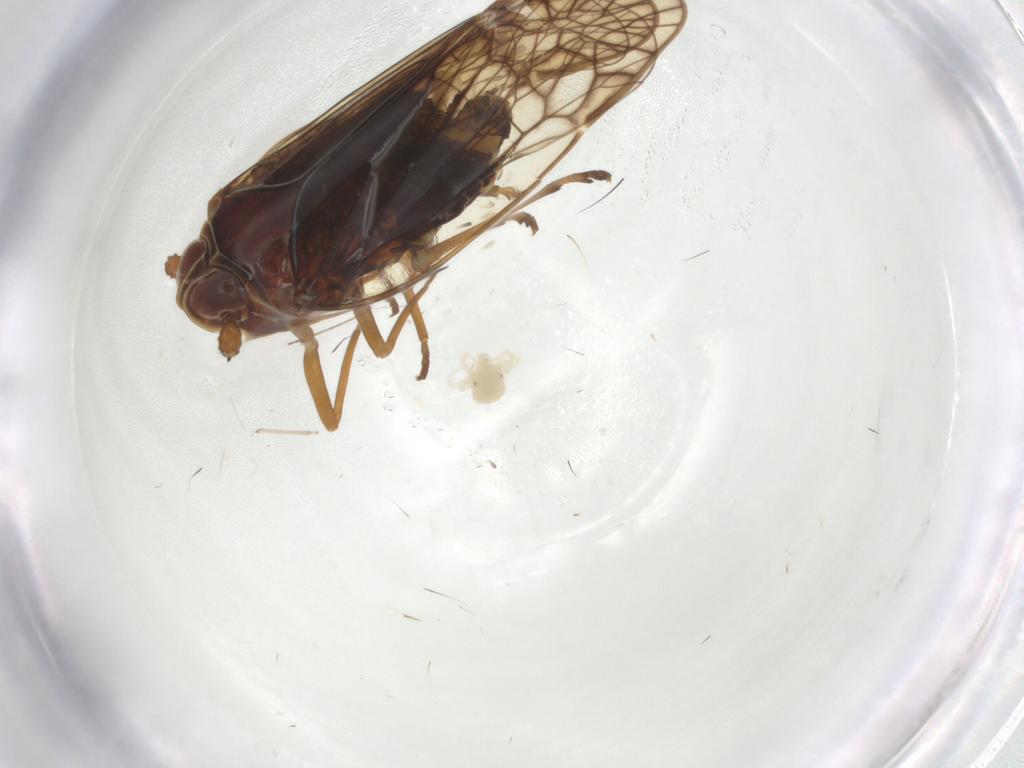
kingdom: Animalia
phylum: Arthropoda
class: Insecta
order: Hemiptera
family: Kinnaridae
